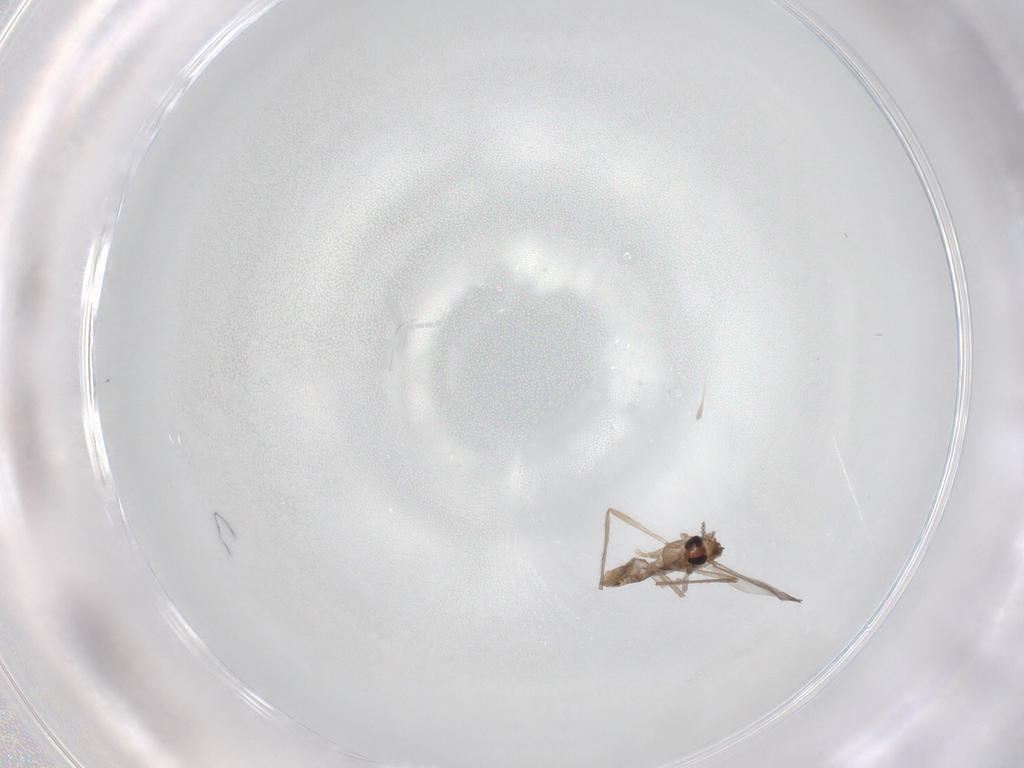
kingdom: Animalia
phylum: Arthropoda
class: Insecta
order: Diptera
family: Chironomidae
